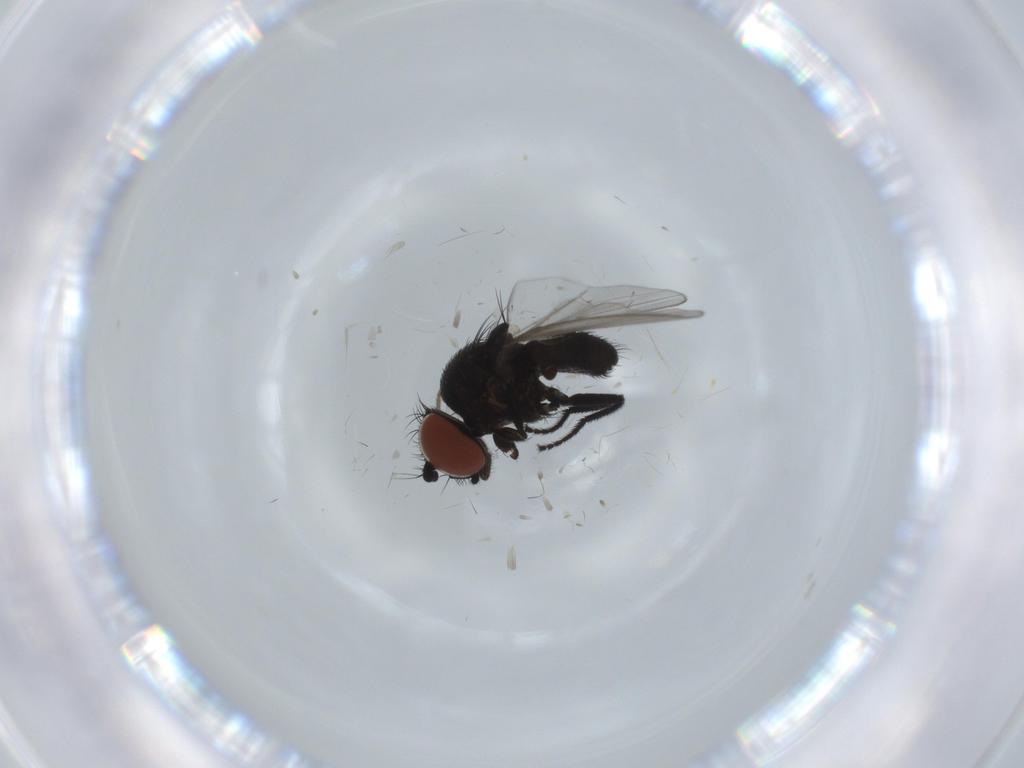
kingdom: Animalia
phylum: Arthropoda
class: Insecta
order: Diptera
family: Milichiidae
